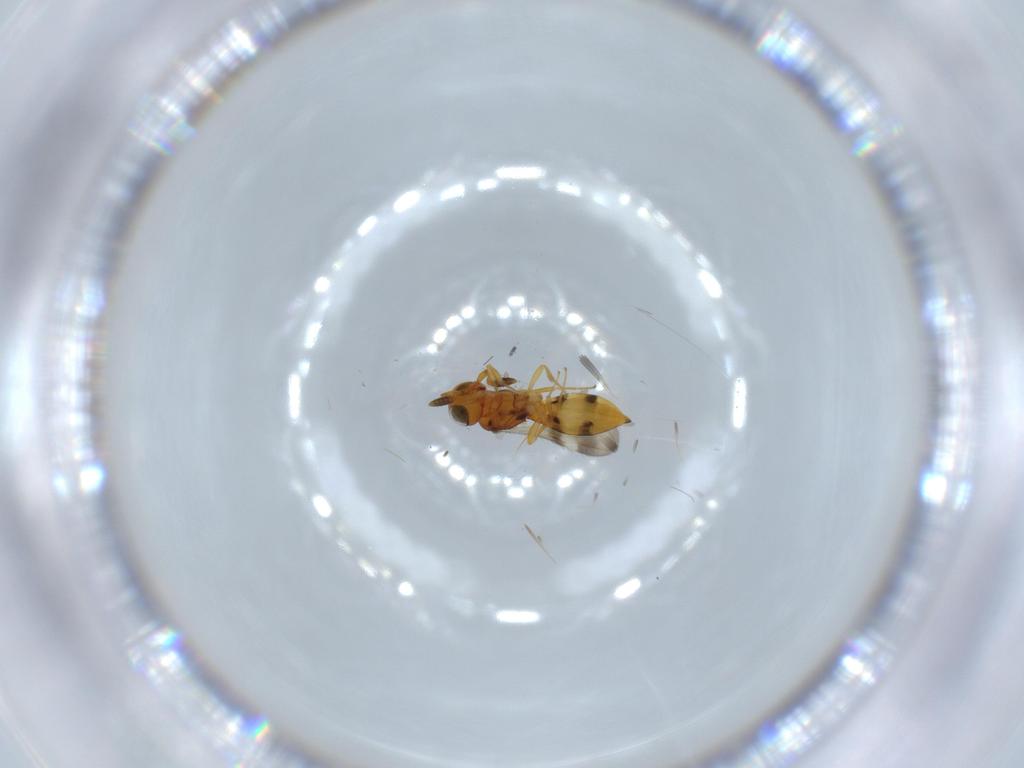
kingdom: Animalia
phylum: Arthropoda
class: Insecta
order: Hymenoptera
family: Scelionidae
